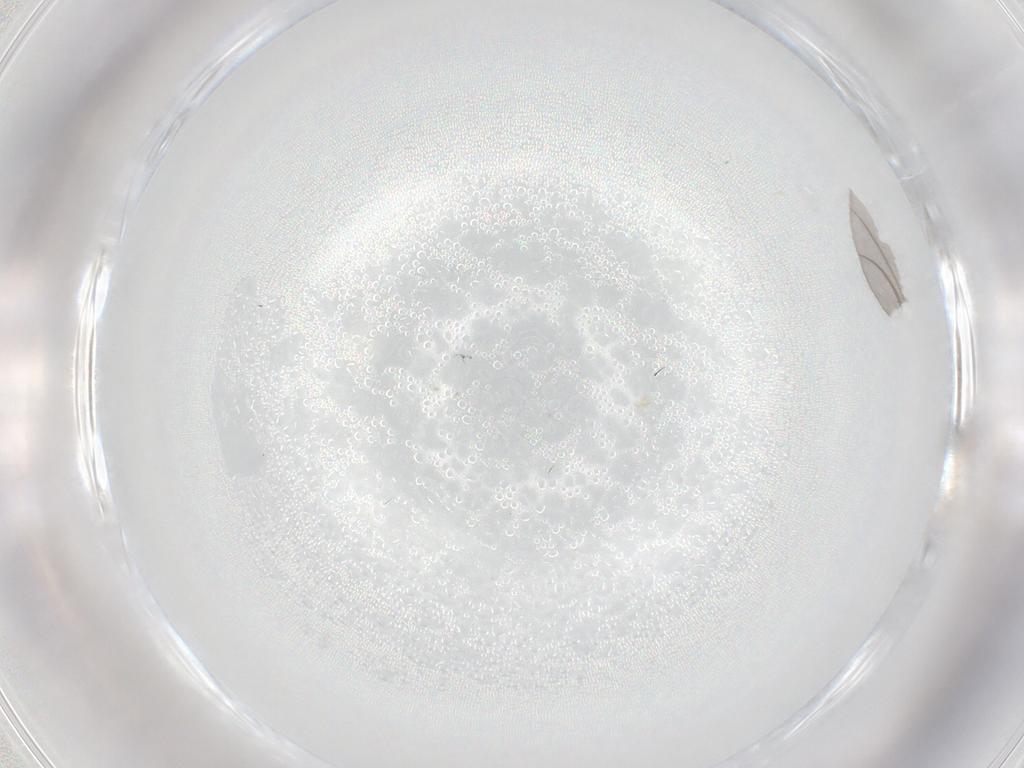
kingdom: Animalia
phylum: Arthropoda
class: Insecta
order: Diptera
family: Cecidomyiidae
